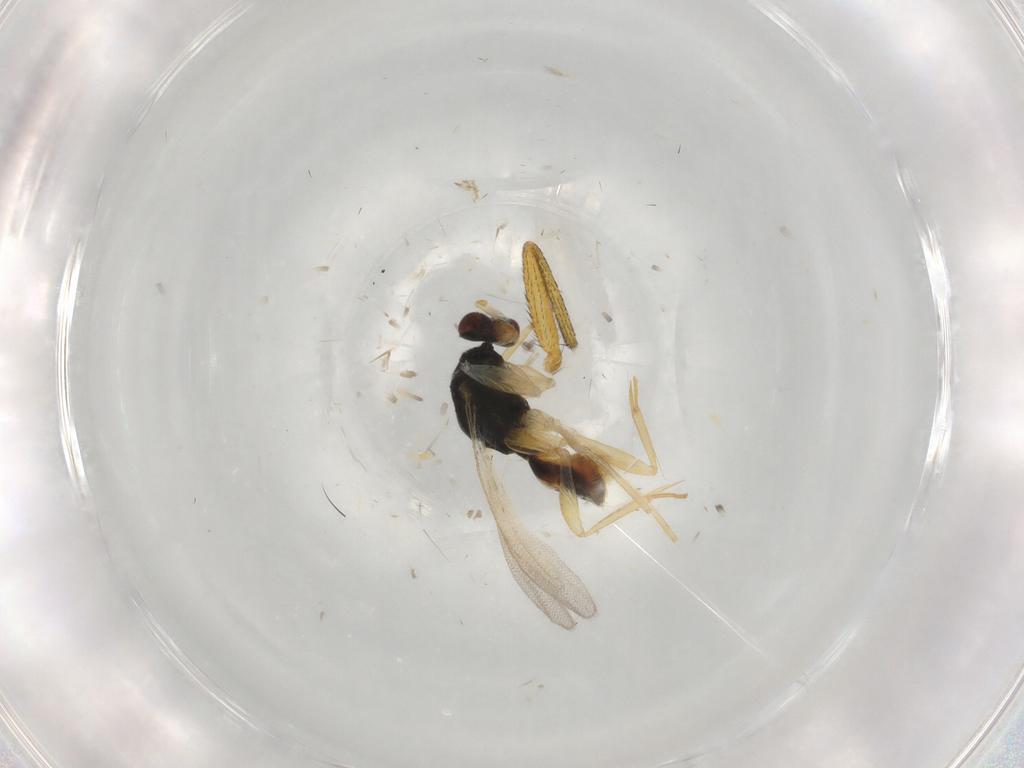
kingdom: Animalia
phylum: Arthropoda
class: Insecta
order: Diptera
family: Muscidae
